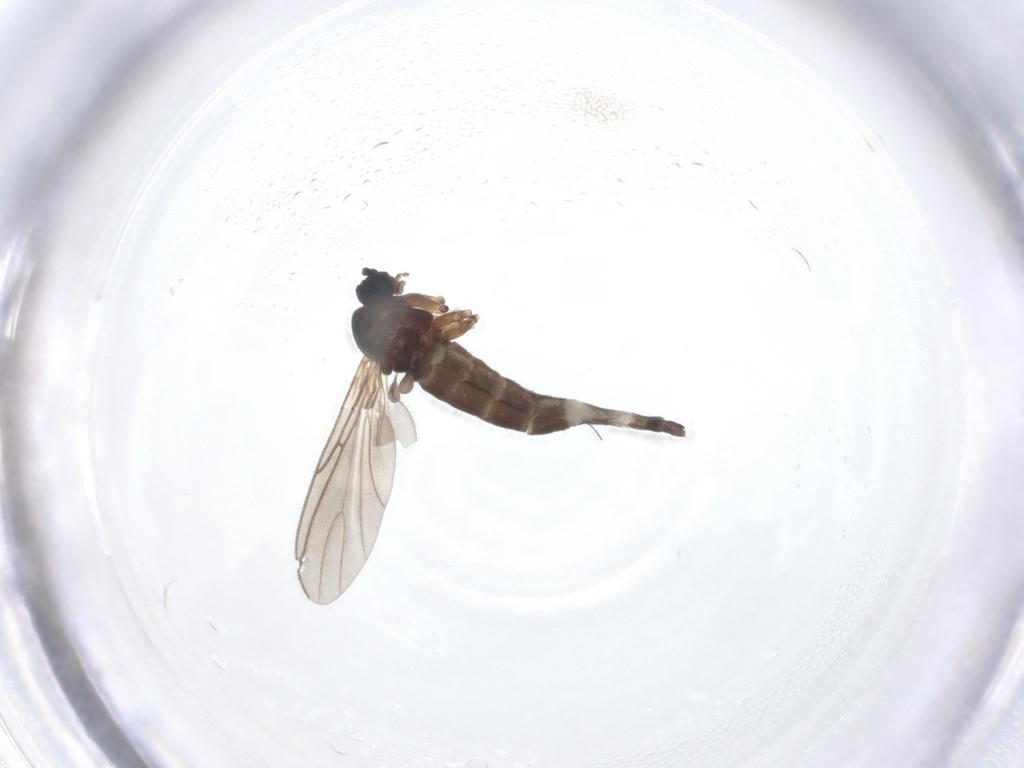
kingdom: Animalia
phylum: Arthropoda
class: Insecta
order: Diptera
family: Sciaridae
